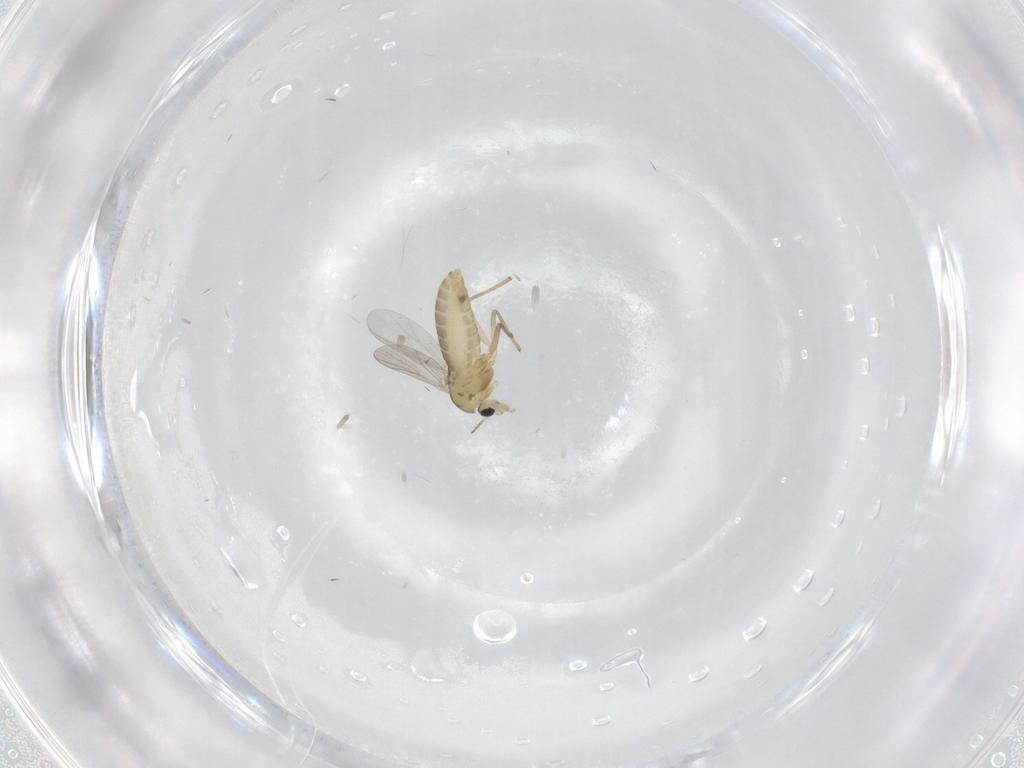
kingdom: Animalia
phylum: Arthropoda
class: Insecta
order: Diptera
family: Chironomidae
